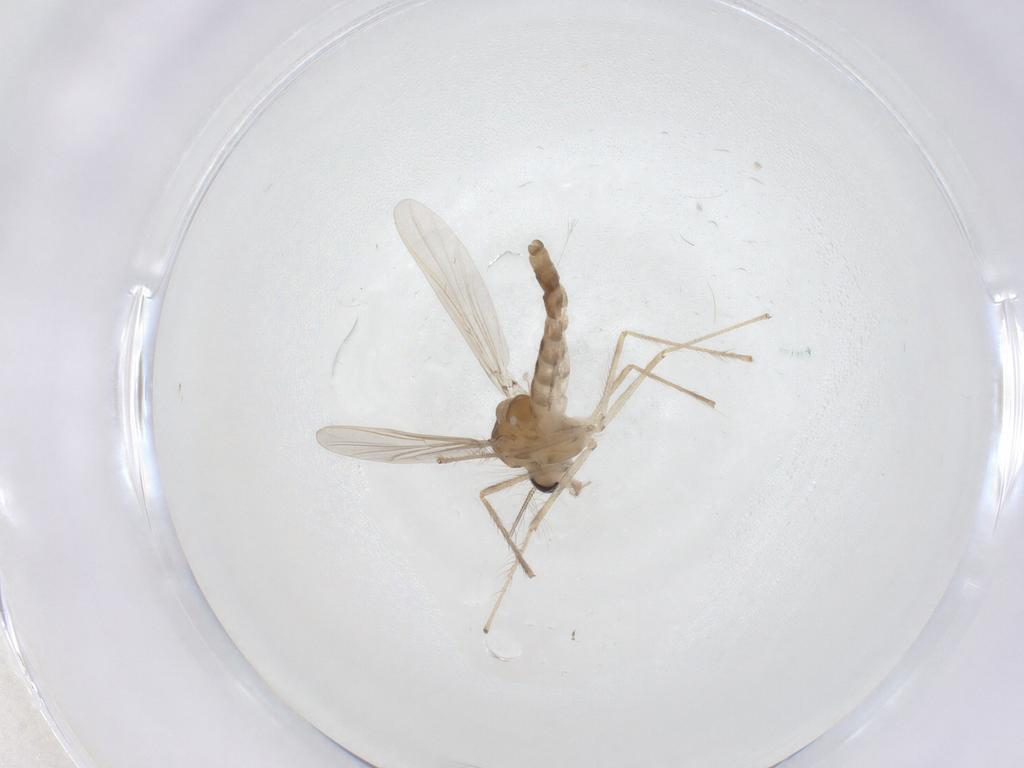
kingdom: Animalia
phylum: Arthropoda
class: Insecta
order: Diptera
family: Chironomidae
